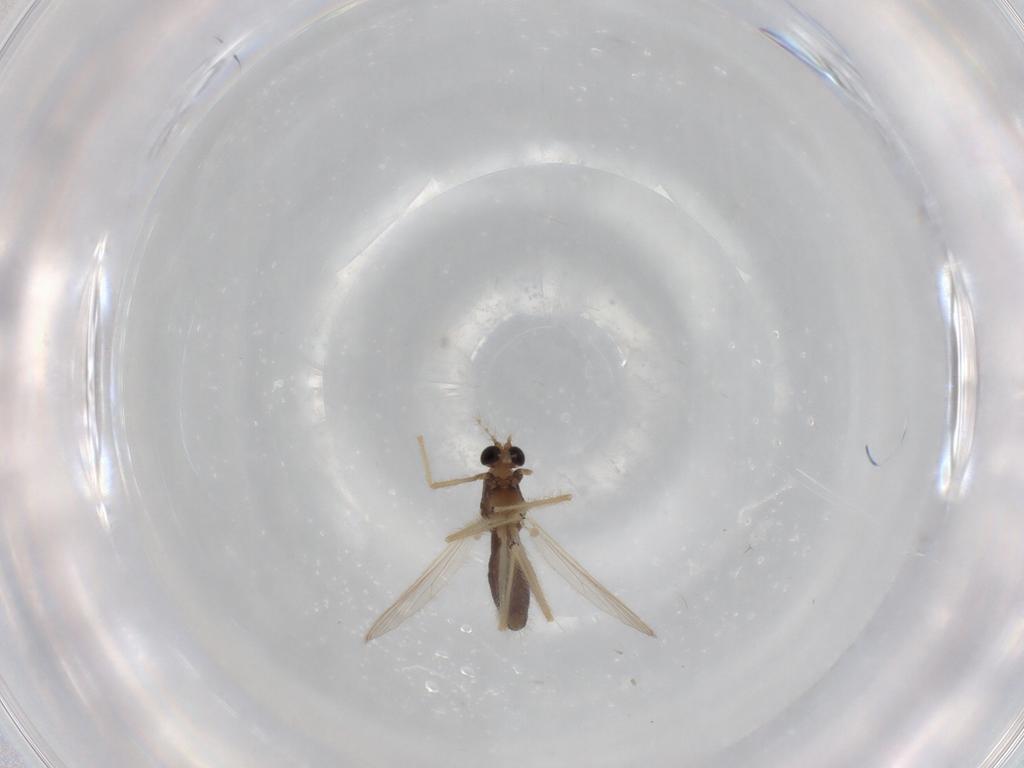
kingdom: Animalia
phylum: Arthropoda
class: Insecta
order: Diptera
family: Chironomidae
